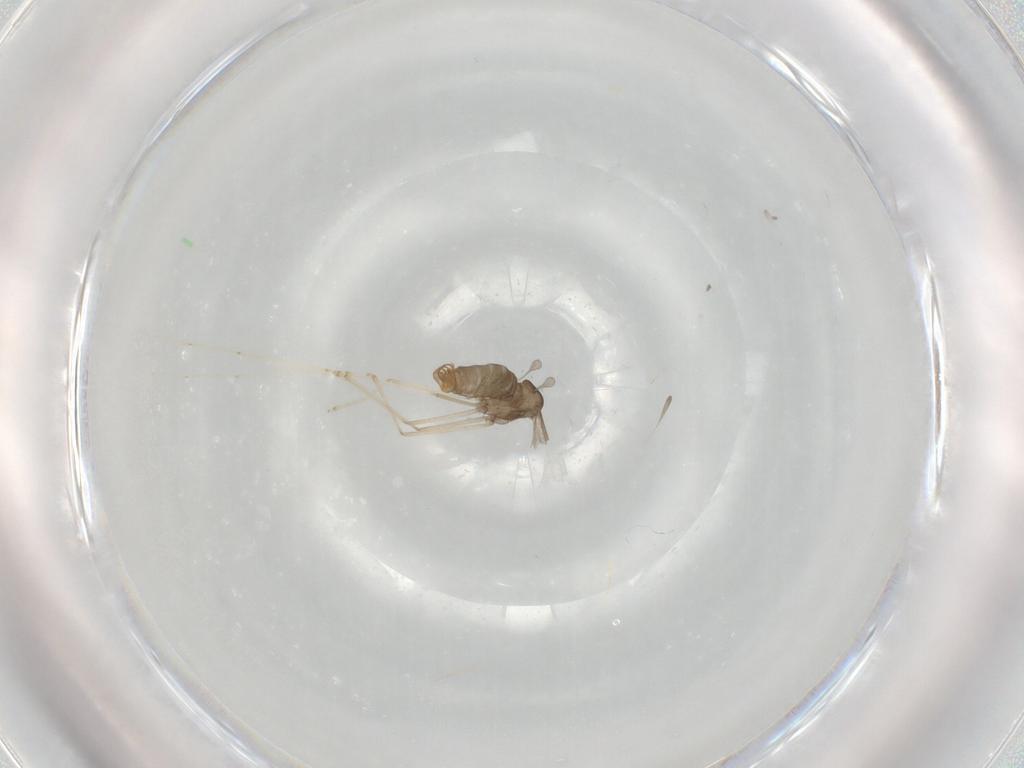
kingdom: Animalia
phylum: Arthropoda
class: Insecta
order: Diptera
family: Cecidomyiidae
